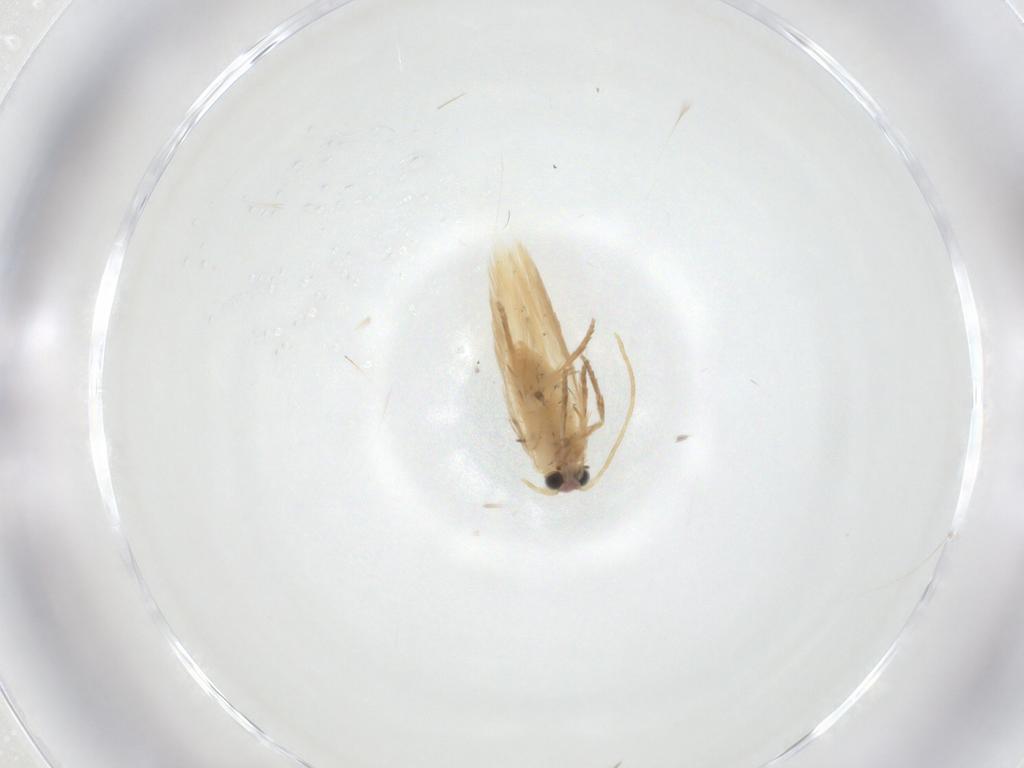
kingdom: Animalia
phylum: Arthropoda
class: Insecta
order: Lepidoptera
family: Nepticulidae
